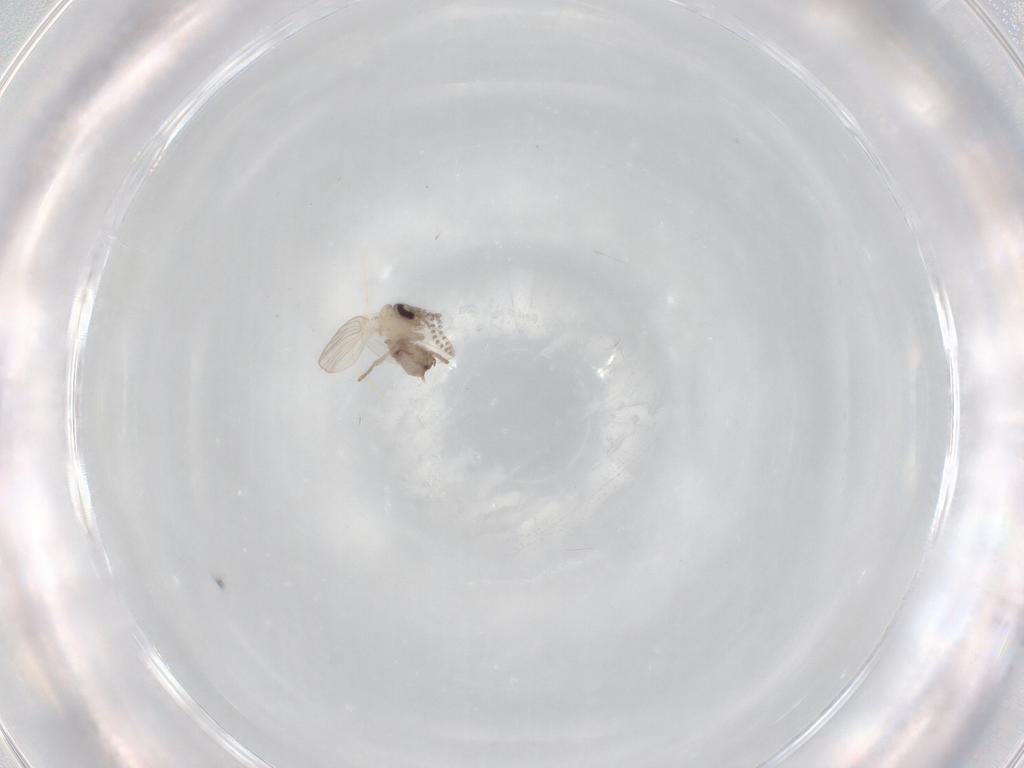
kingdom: Animalia
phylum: Arthropoda
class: Insecta
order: Diptera
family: Psychodidae
